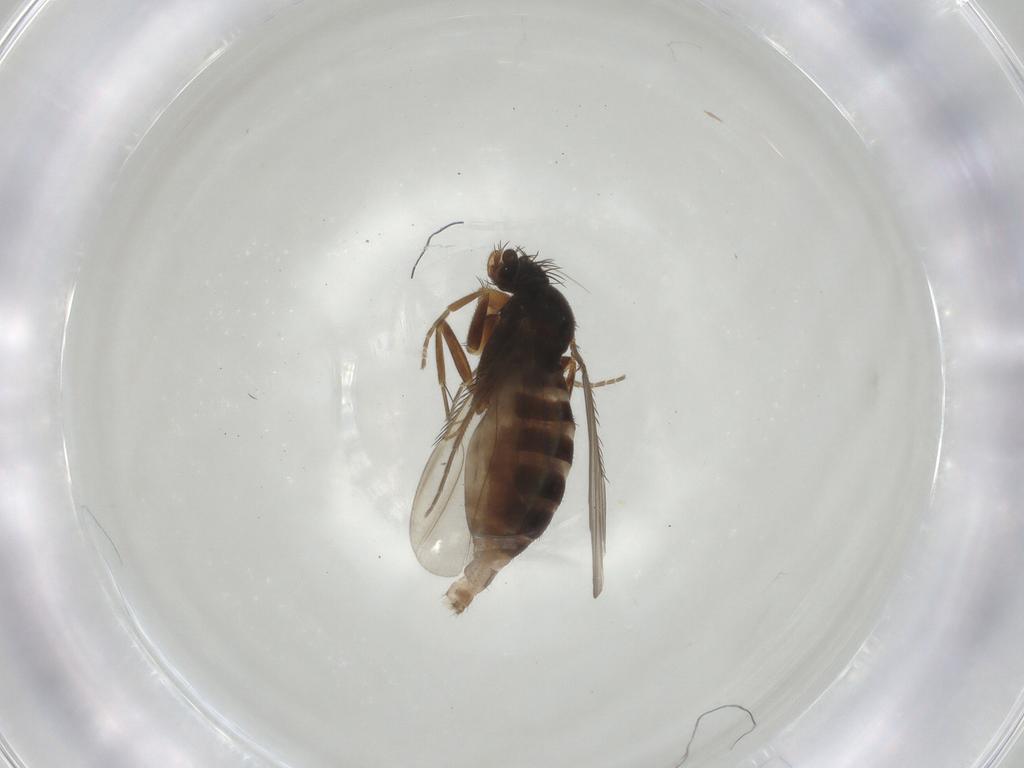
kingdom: Animalia
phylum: Arthropoda
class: Insecta
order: Diptera
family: Phoridae
